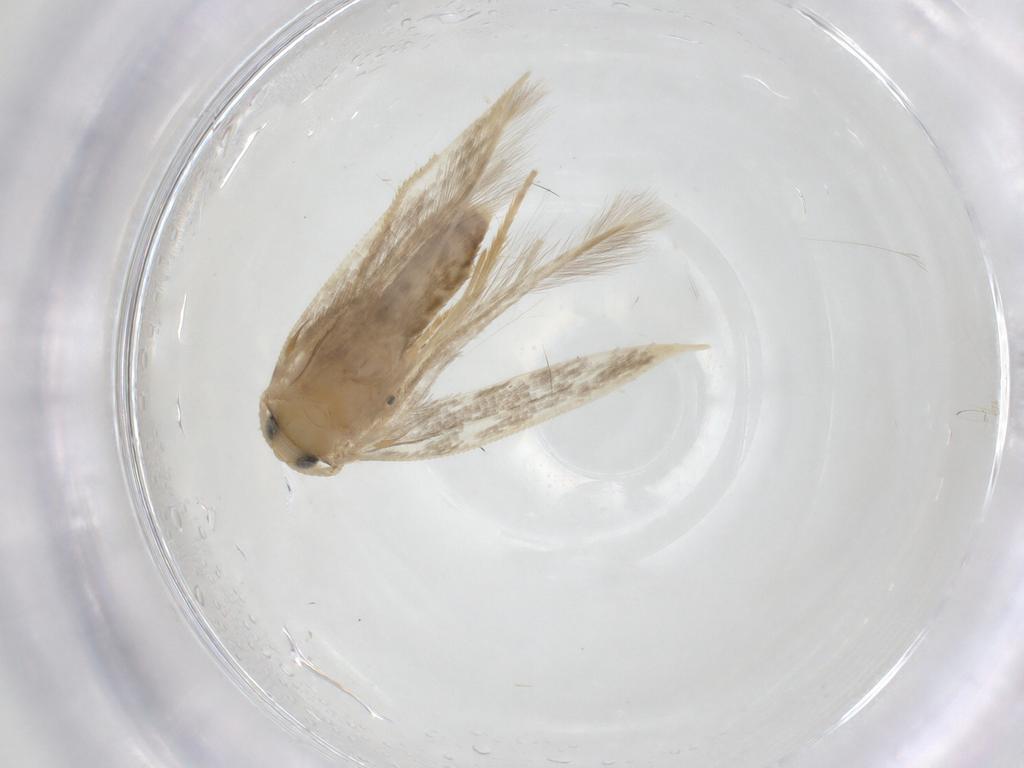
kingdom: Animalia
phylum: Arthropoda
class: Insecta
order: Lepidoptera
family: Opostegidae
